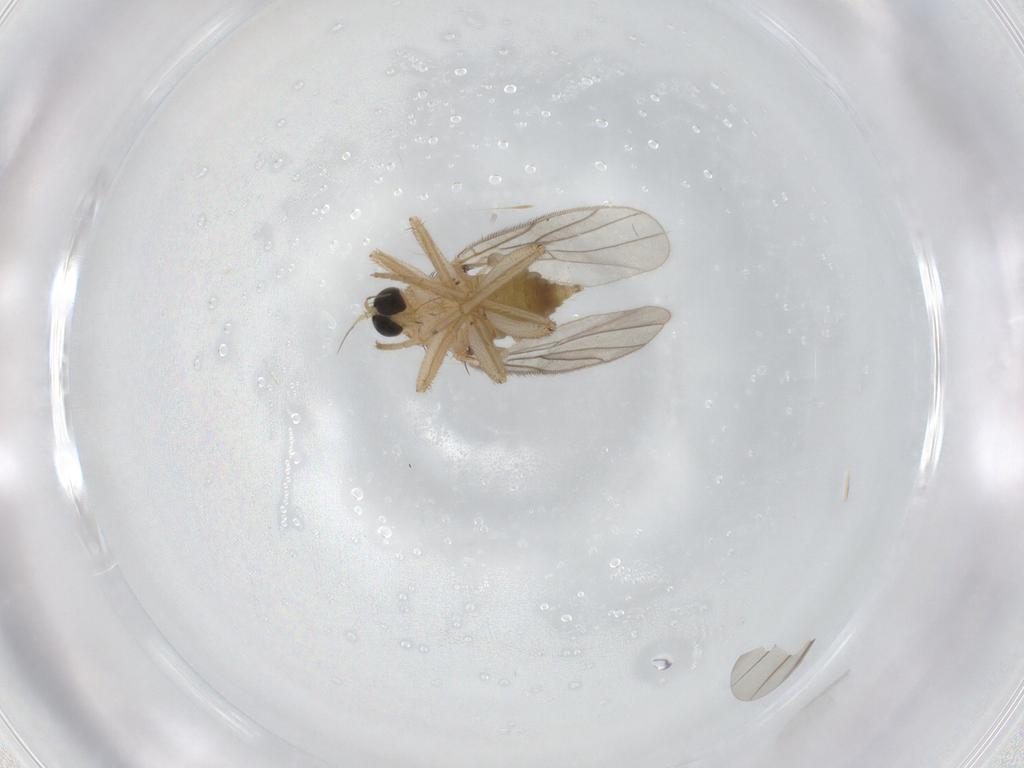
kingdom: Animalia
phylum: Arthropoda
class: Insecta
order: Diptera
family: Hybotidae
